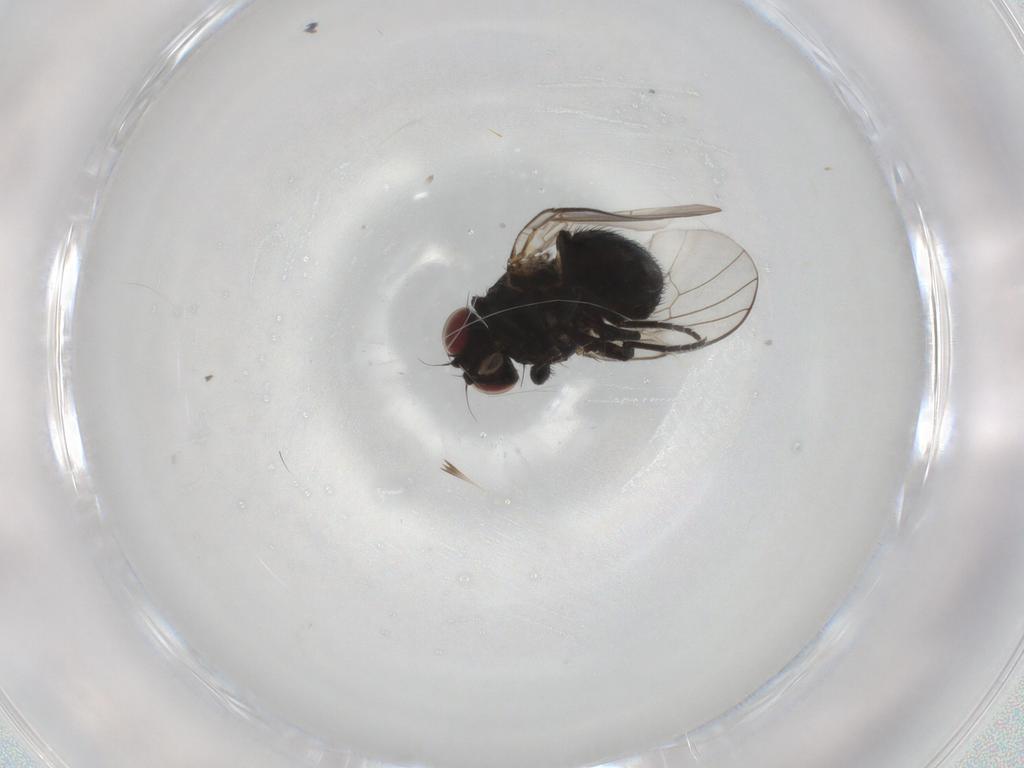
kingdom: Animalia
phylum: Arthropoda
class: Insecta
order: Diptera
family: Agromyzidae
